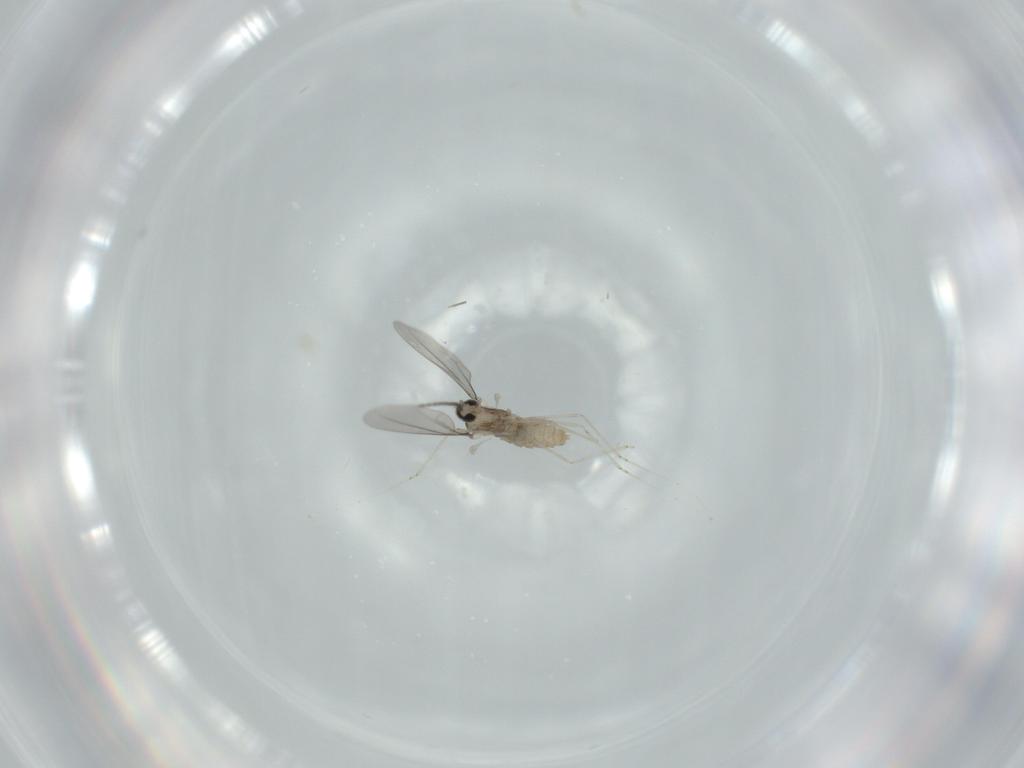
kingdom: Animalia
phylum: Arthropoda
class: Insecta
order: Diptera
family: Cecidomyiidae
